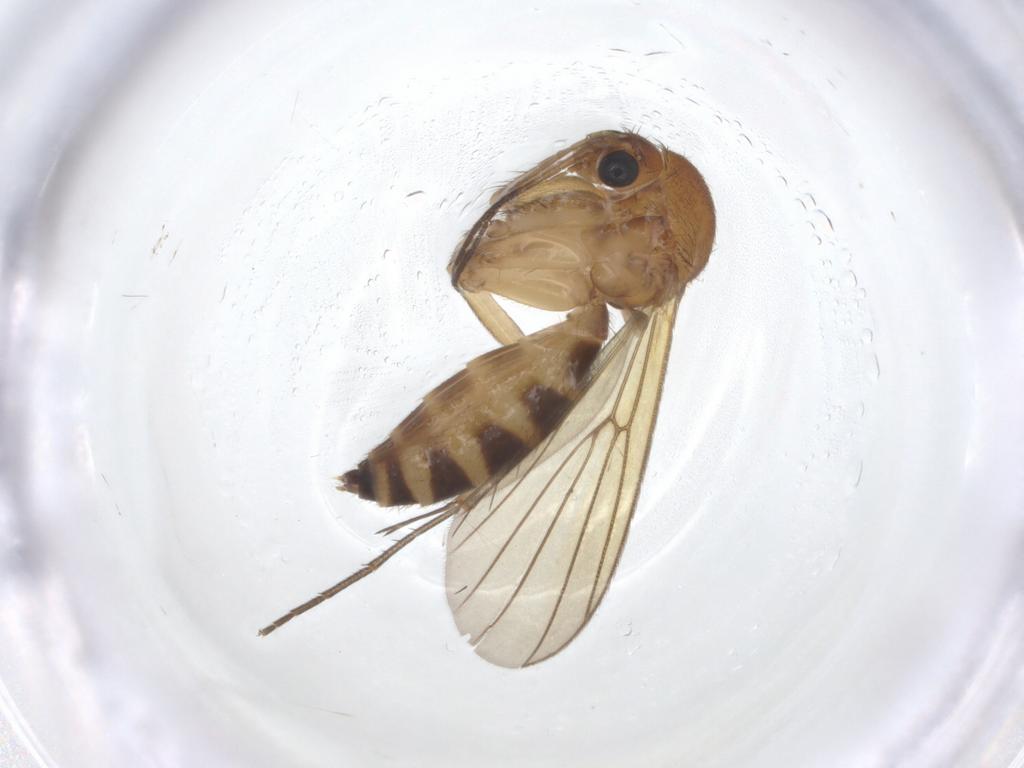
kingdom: Animalia
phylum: Arthropoda
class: Insecta
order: Diptera
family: Mycetophilidae
